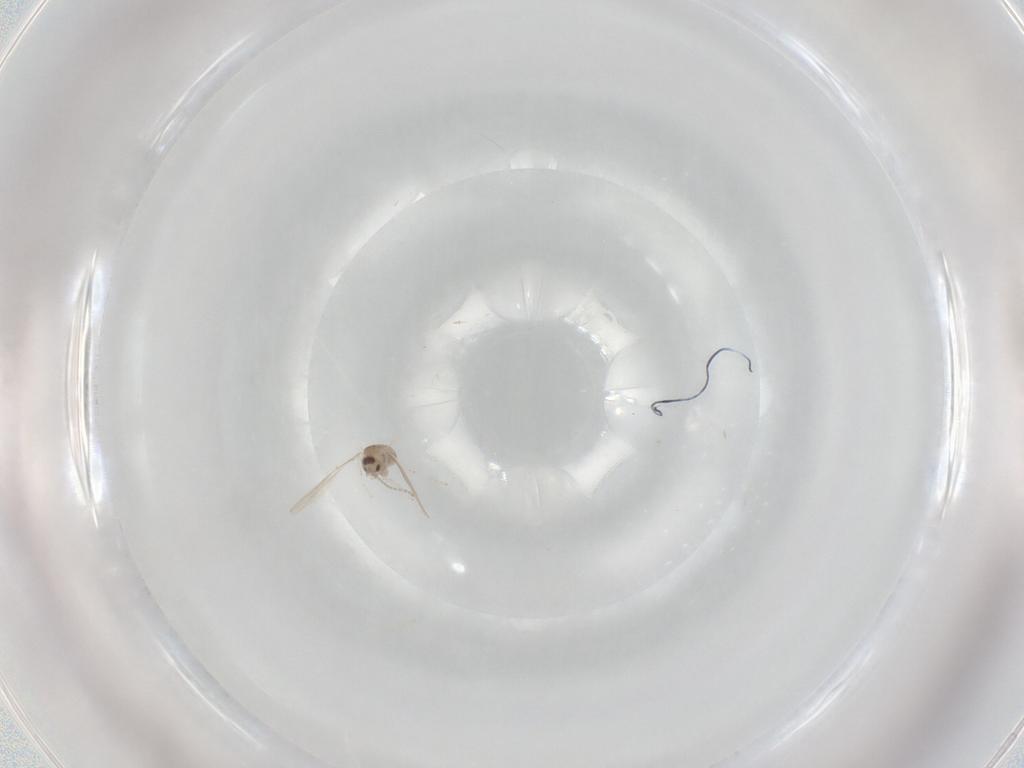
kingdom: Animalia
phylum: Arthropoda
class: Insecta
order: Diptera
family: Cecidomyiidae
